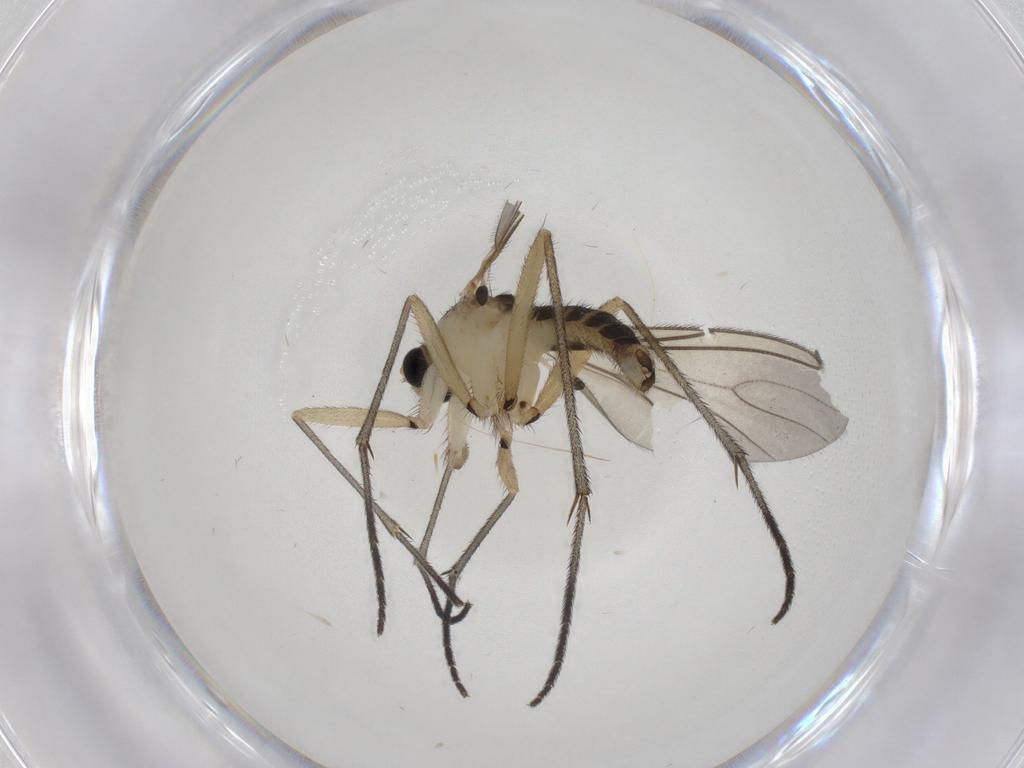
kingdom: Animalia
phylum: Arthropoda
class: Insecta
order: Diptera
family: Sciaridae
